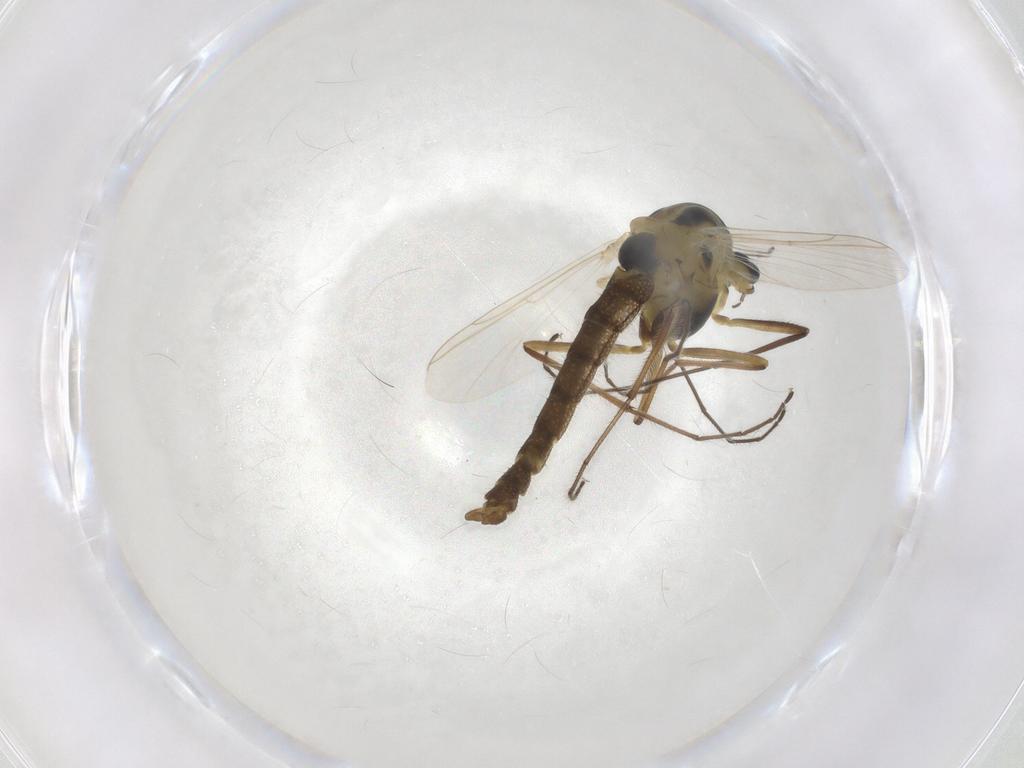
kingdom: Animalia
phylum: Arthropoda
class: Insecta
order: Diptera
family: Chironomidae
